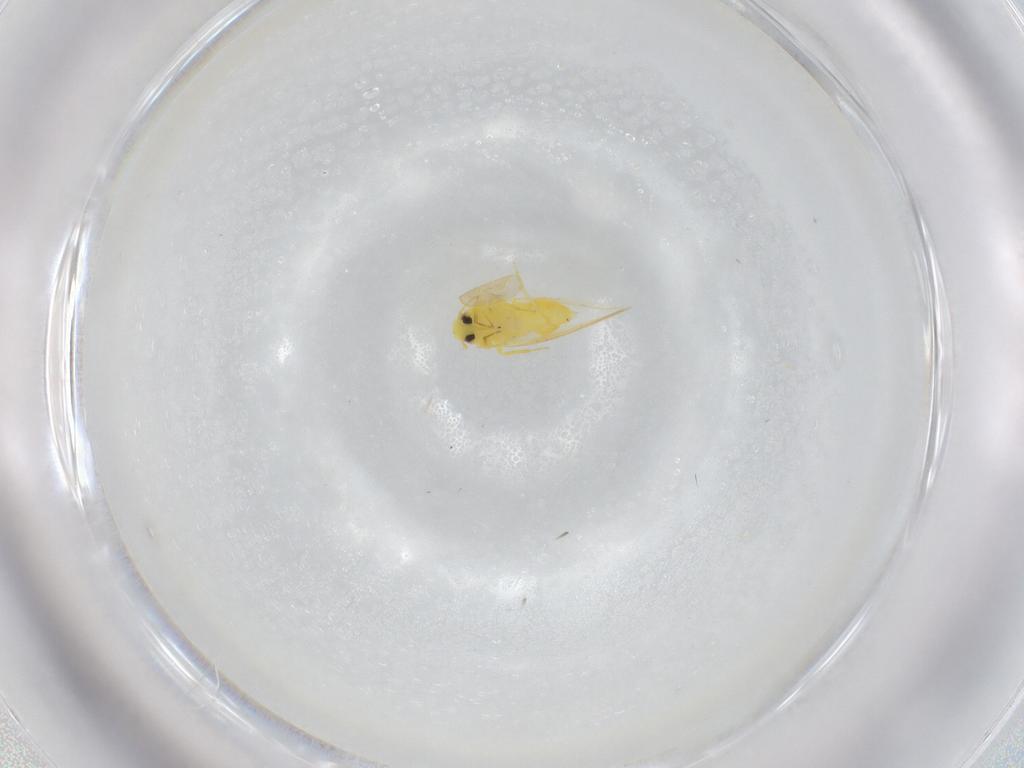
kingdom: Animalia
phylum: Arthropoda
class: Insecta
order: Hemiptera
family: Aleyrodidae
